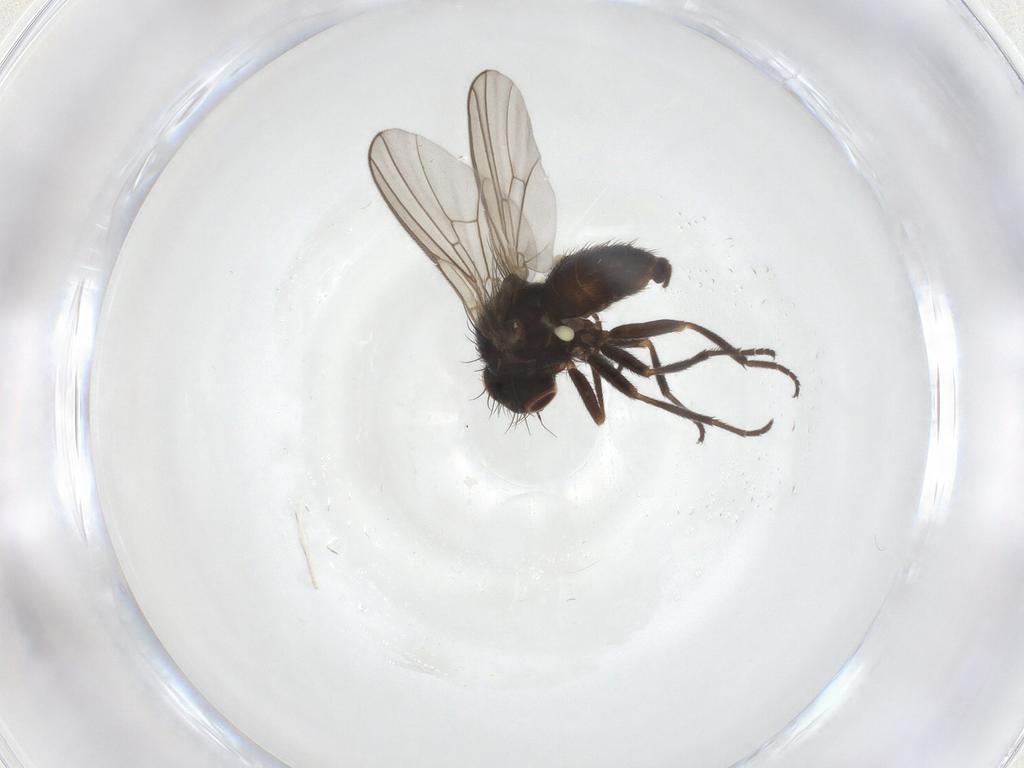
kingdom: Animalia
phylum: Arthropoda
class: Insecta
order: Diptera
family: Agromyzidae
